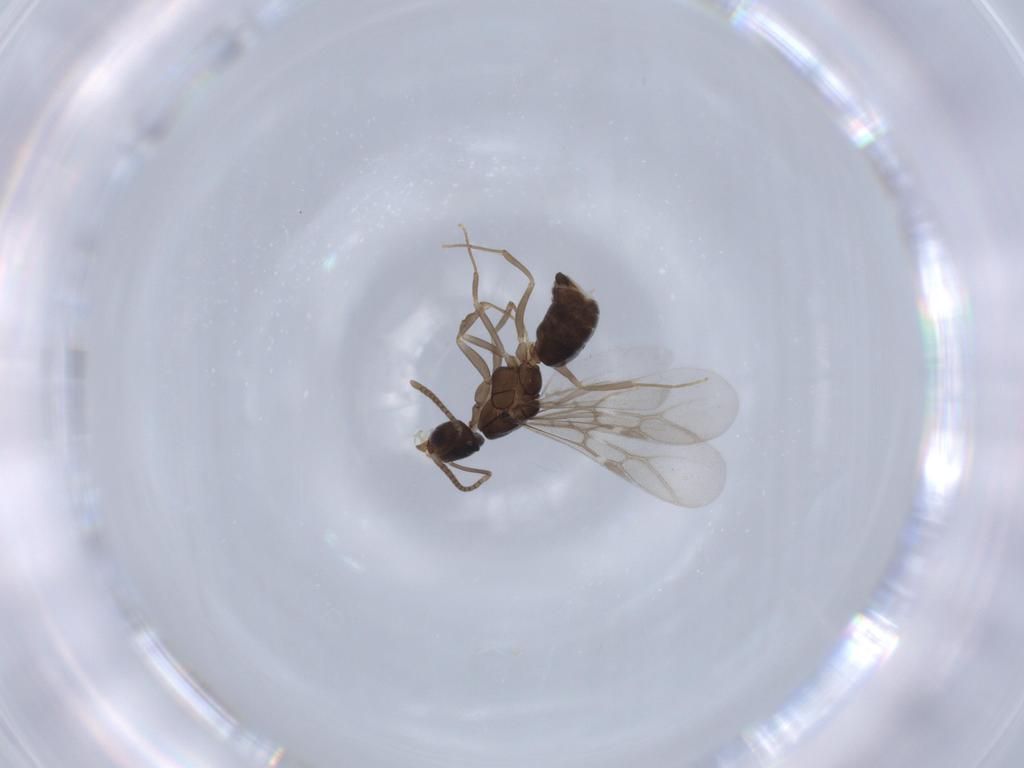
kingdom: Animalia
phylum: Arthropoda
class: Insecta
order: Hymenoptera
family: Formicidae
